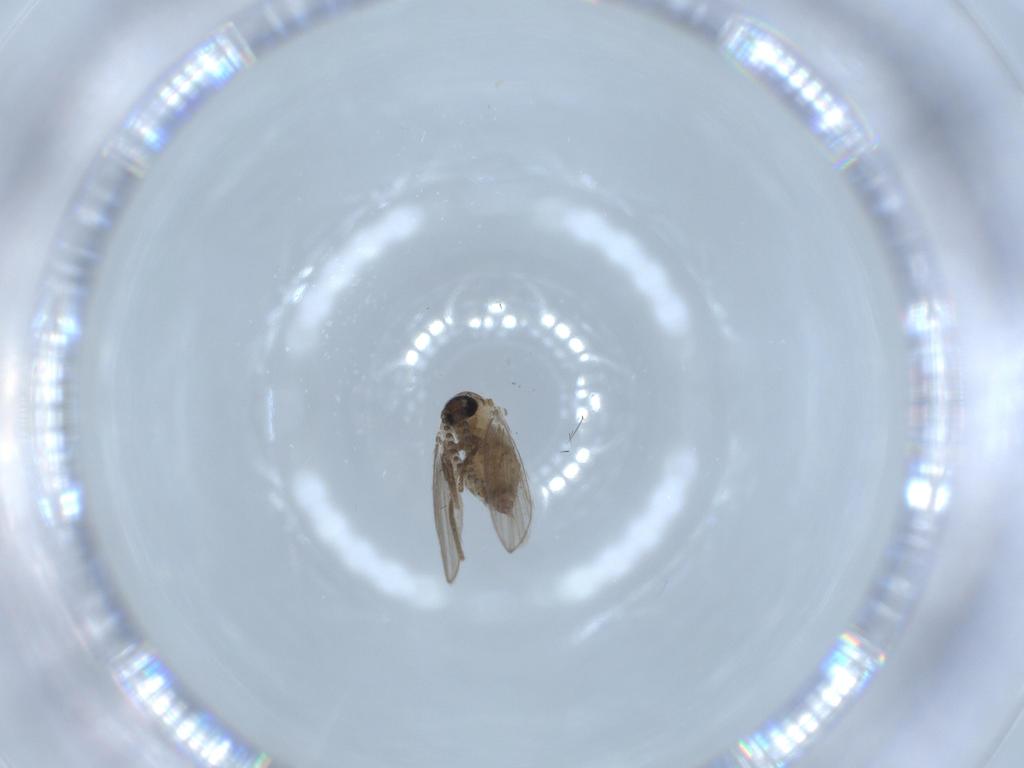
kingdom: Animalia
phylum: Arthropoda
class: Insecta
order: Diptera
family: Psychodidae
